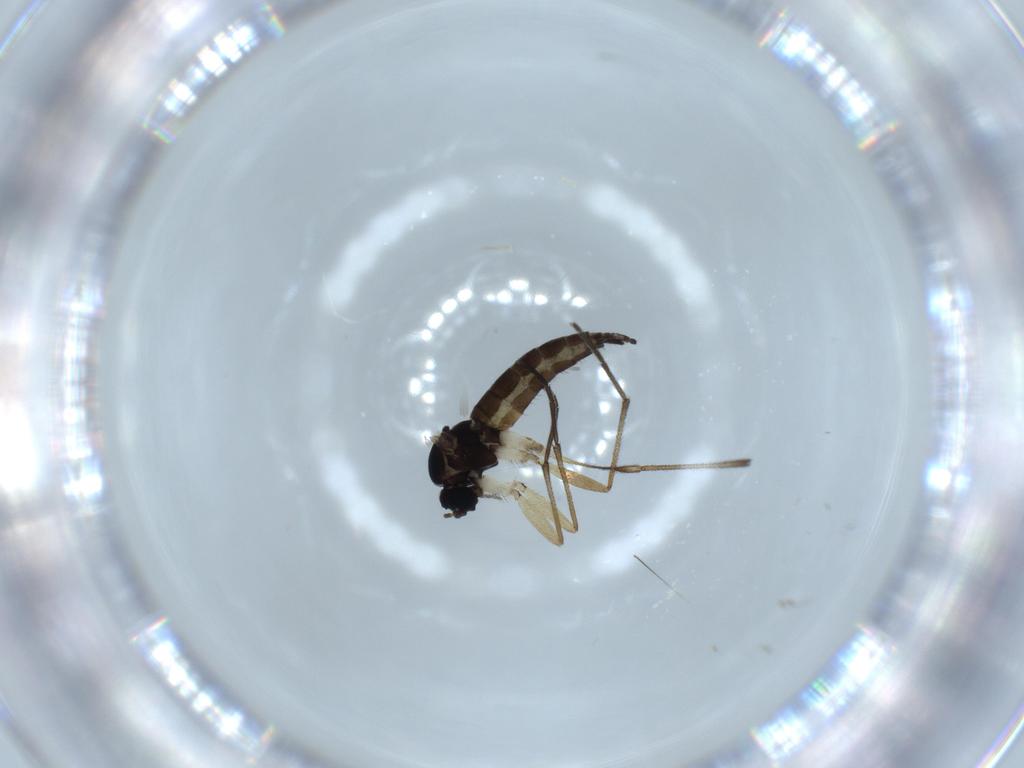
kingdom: Animalia
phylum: Arthropoda
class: Insecta
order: Diptera
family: Sciaridae
